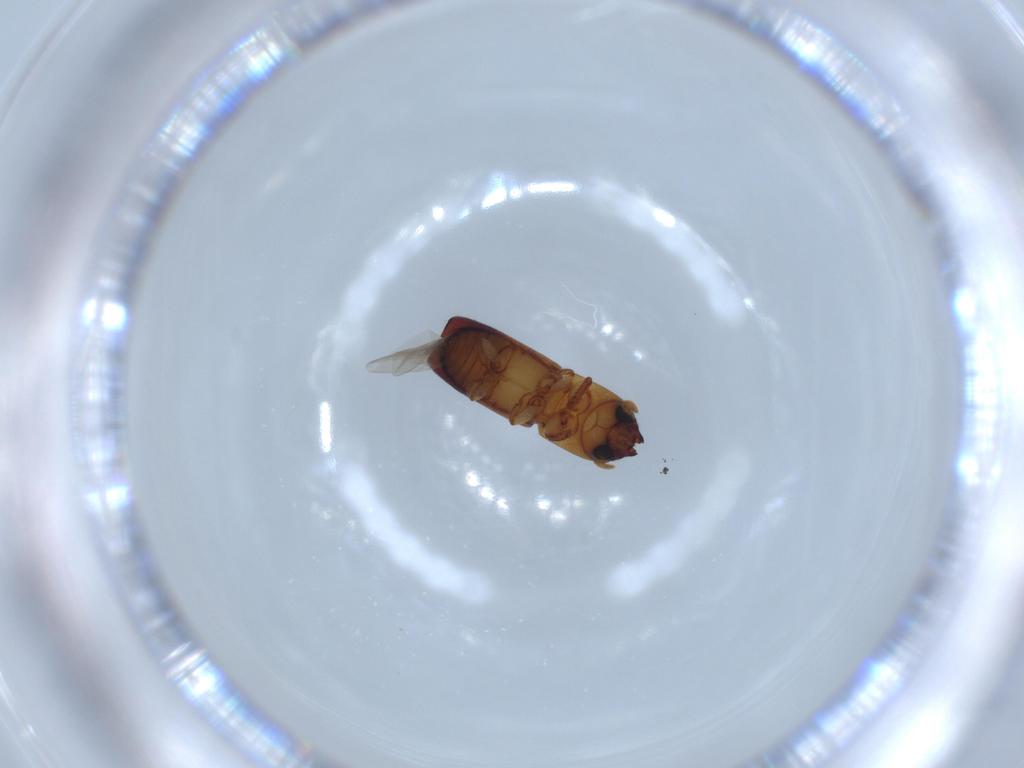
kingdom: Animalia
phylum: Arthropoda
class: Insecta
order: Coleoptera
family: Curculionidae
